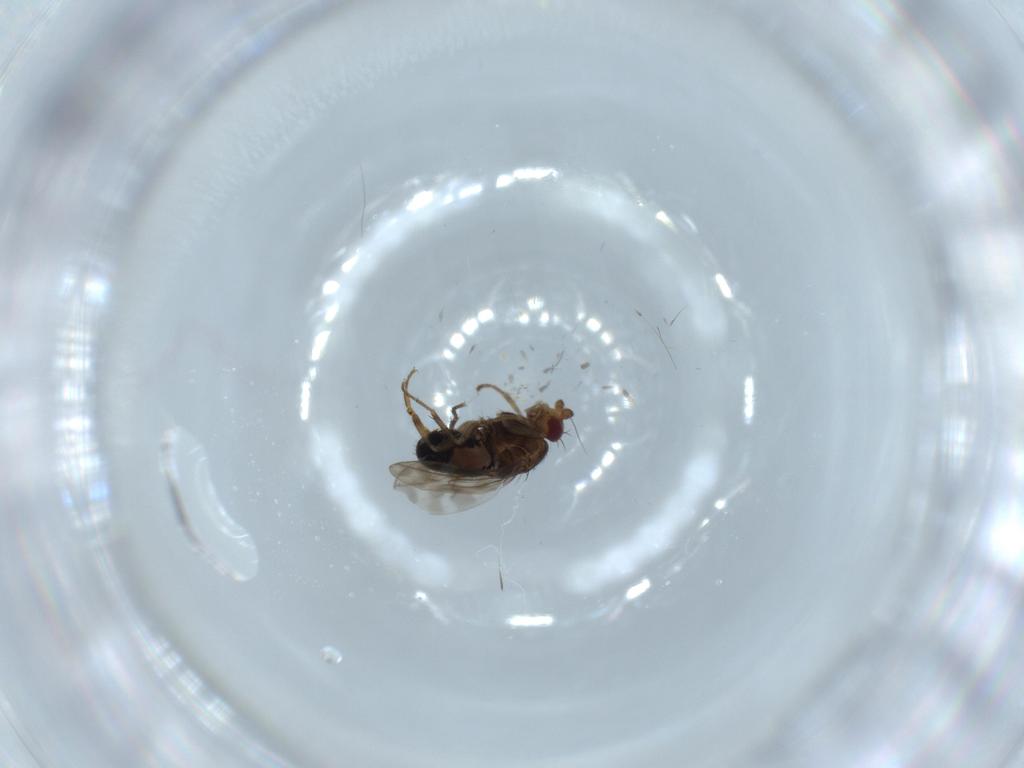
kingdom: Animalia
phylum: Arthropoda
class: Insecta
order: Diptera
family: Sphaeroceridae
